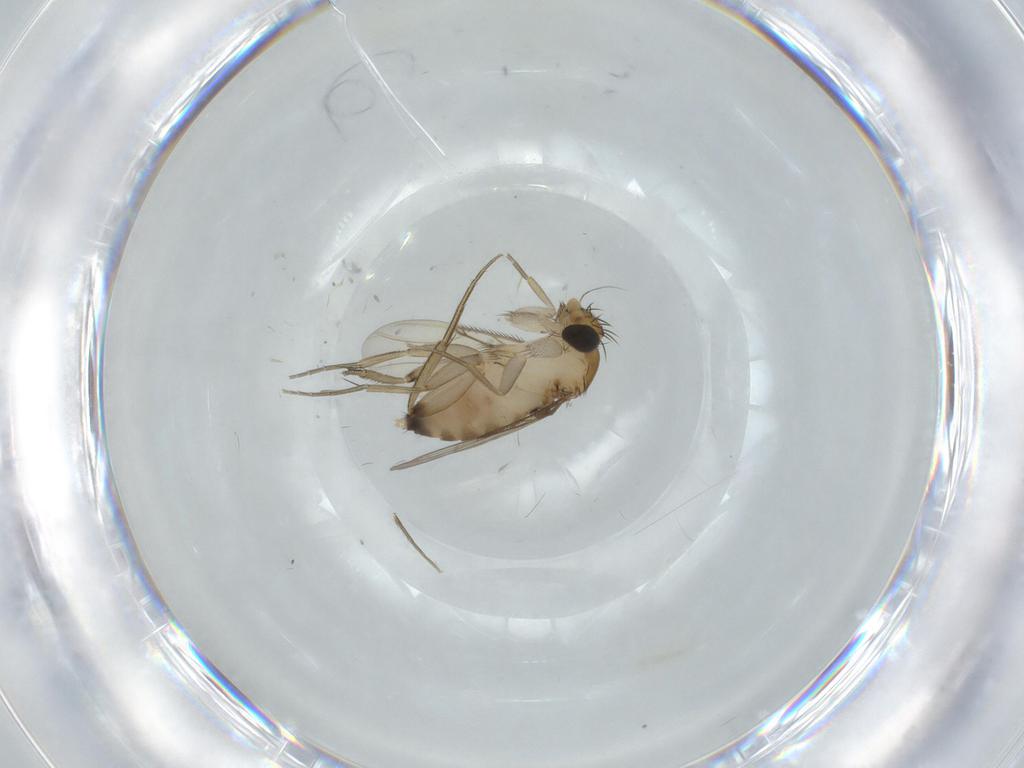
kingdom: Animalia
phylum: Arthropoda
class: Insecta
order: Diptera
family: Phoridae
